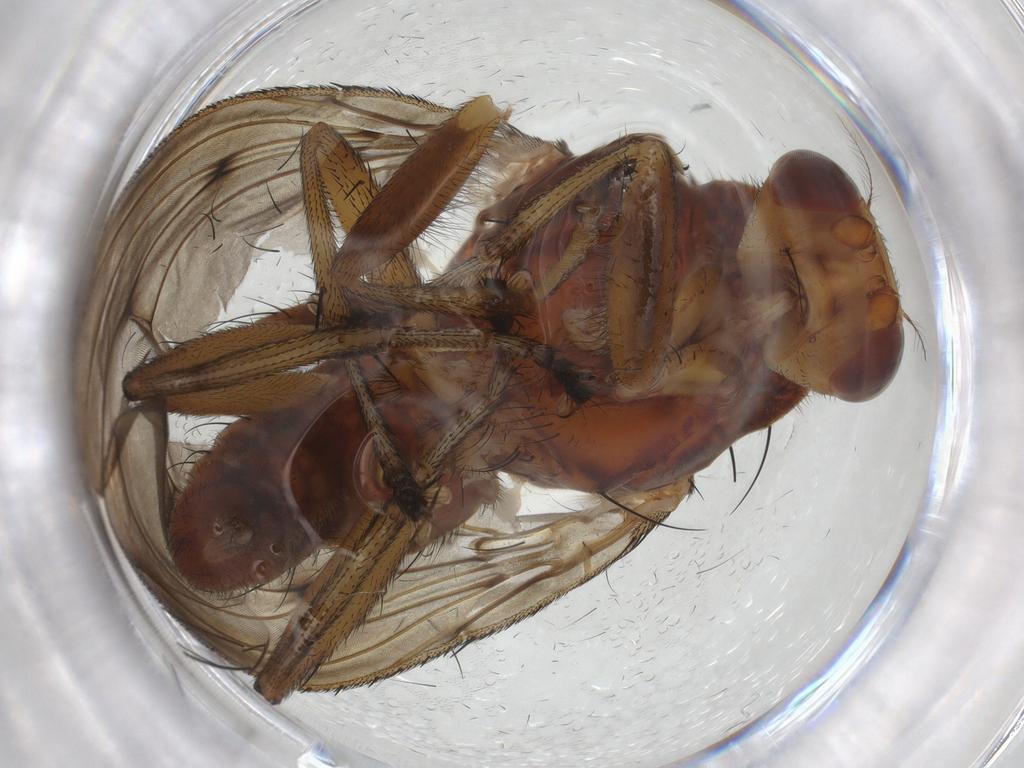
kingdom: Animalia
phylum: Arthropoda
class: Insecta
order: Diptera
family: Heleomyzidae
